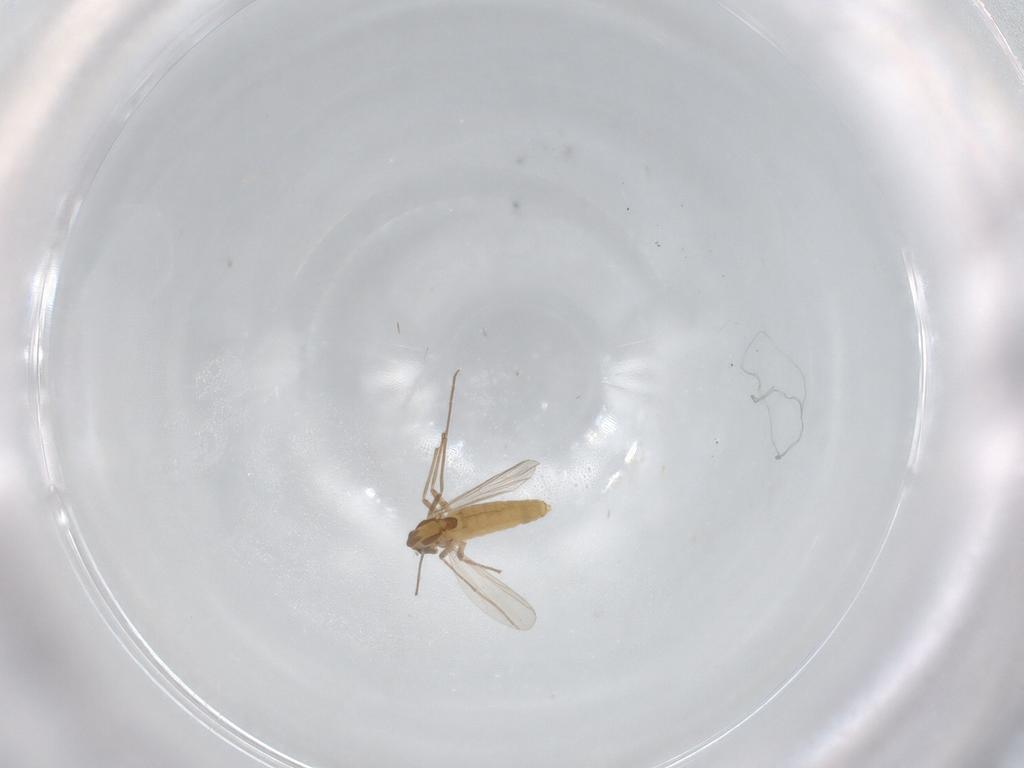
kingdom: Animalia
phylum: Arthropoda
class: Insecta
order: Diptera
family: Chironomidae
